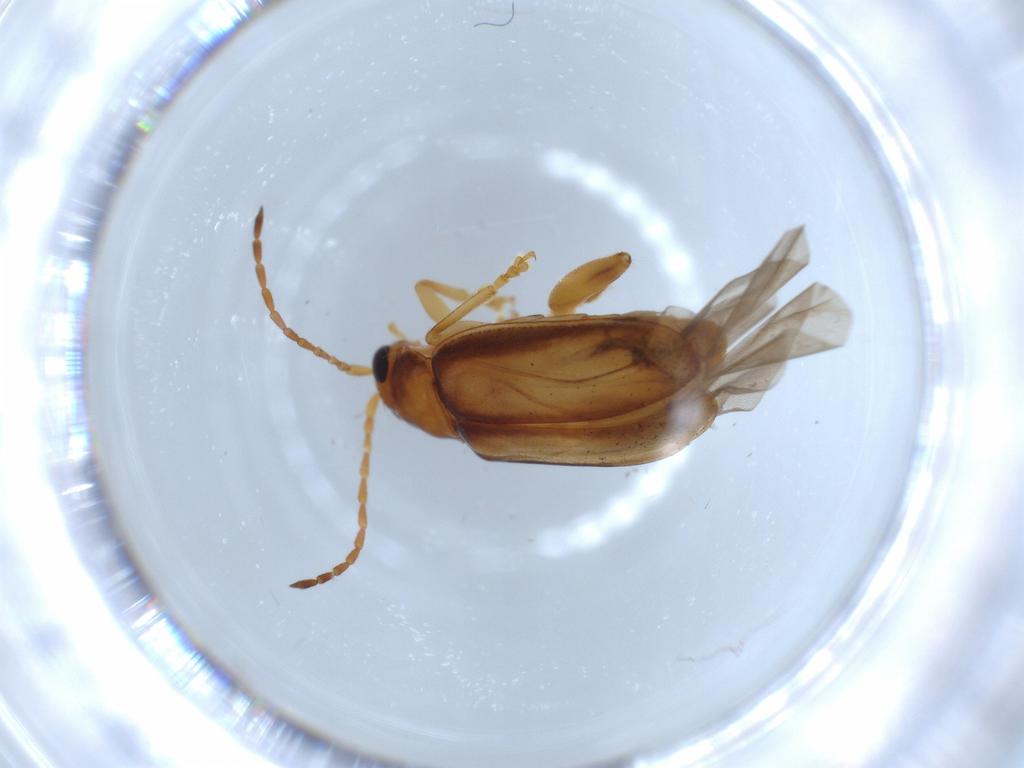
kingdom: Animalia
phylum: Arthropoda
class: Insecta
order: Coleoptera
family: Chrysomelidae
